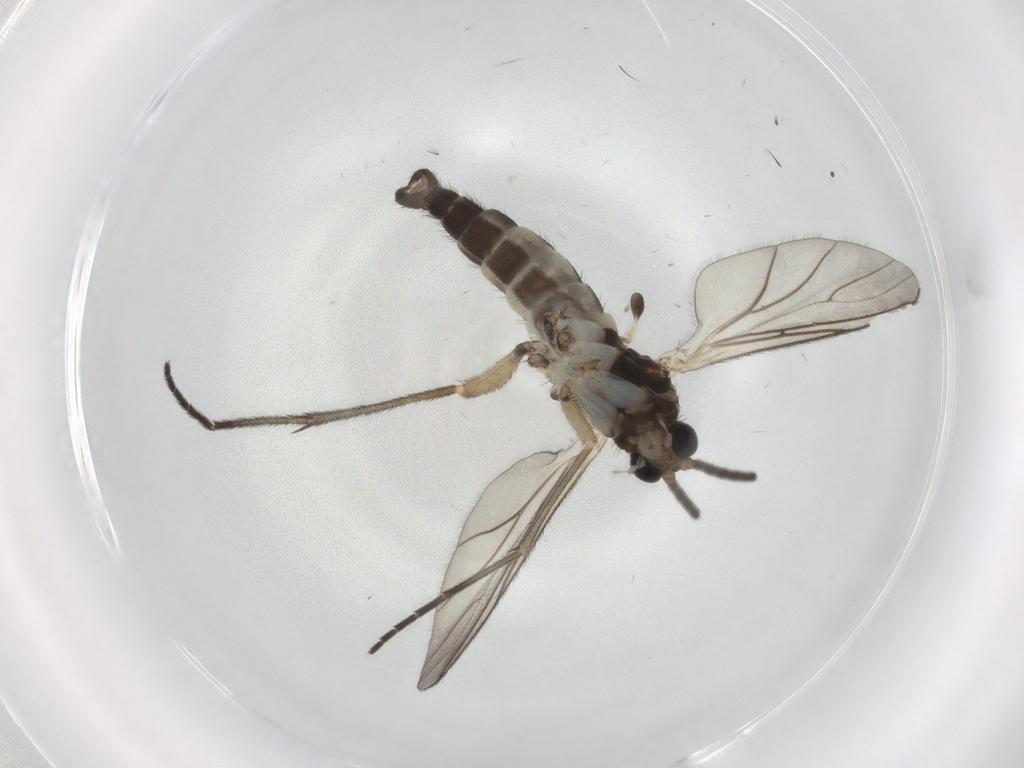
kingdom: Animalia
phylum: Arthropoda
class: Insecta
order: Diptera
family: Sciaridae
